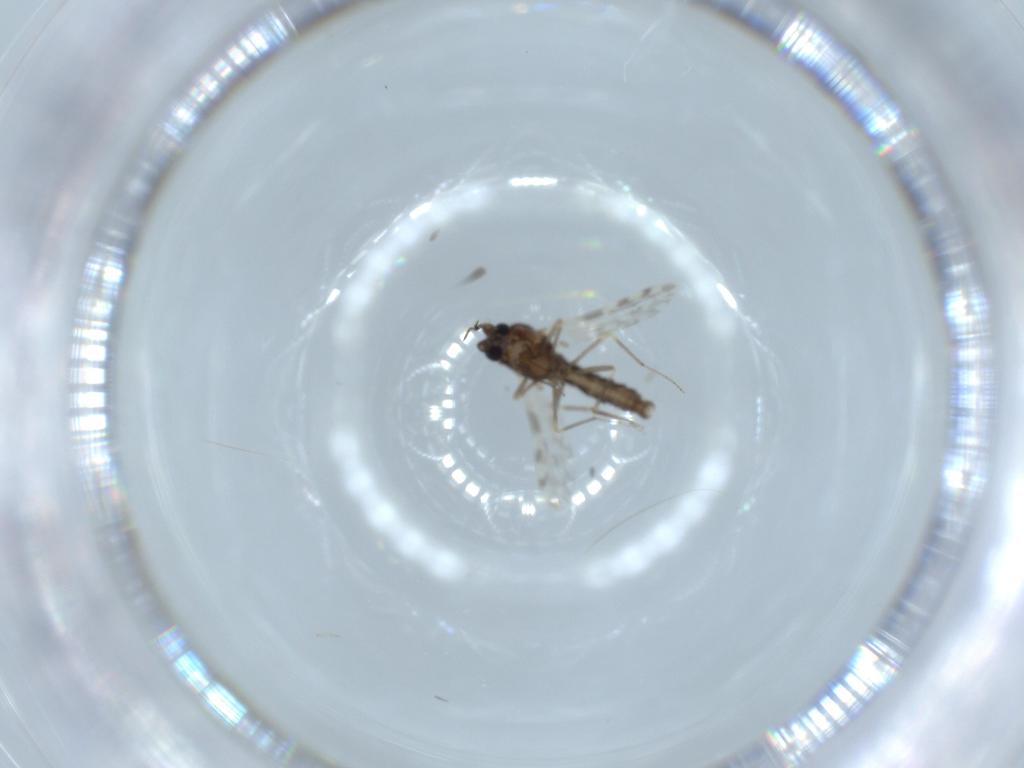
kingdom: Animalia
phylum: Arthropoda
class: Insecta
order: Diptera
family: Ceratopogonidae
